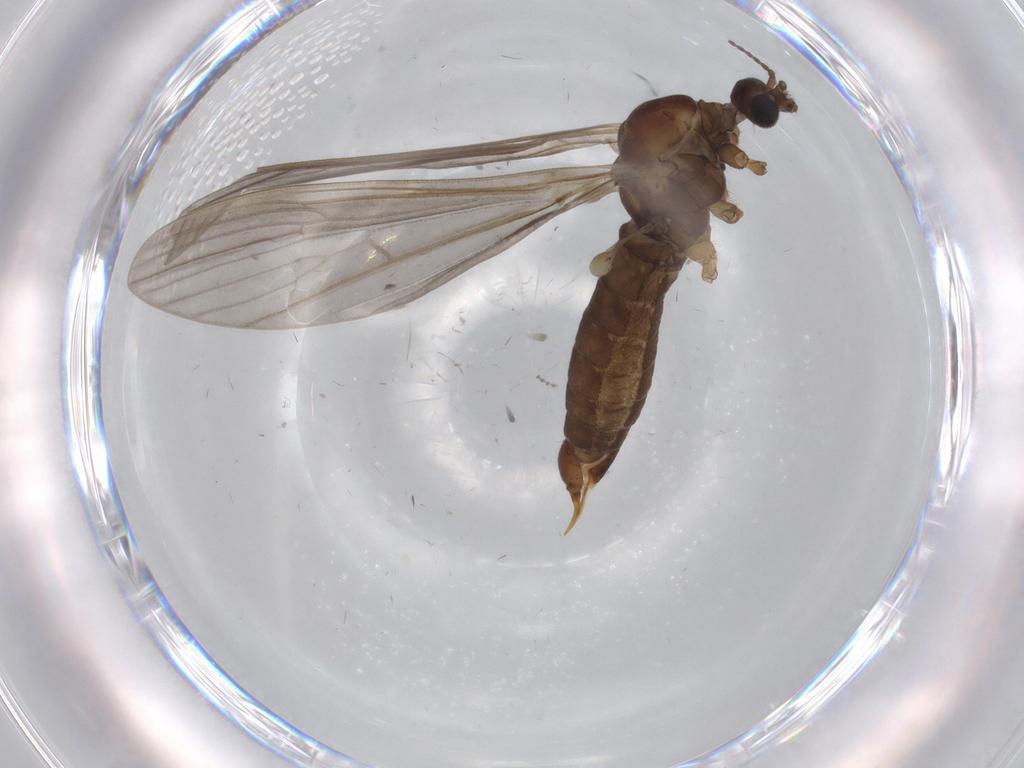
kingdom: Animalia
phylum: Arthropoda
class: Insecta
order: Diptera
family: Limoniidae
